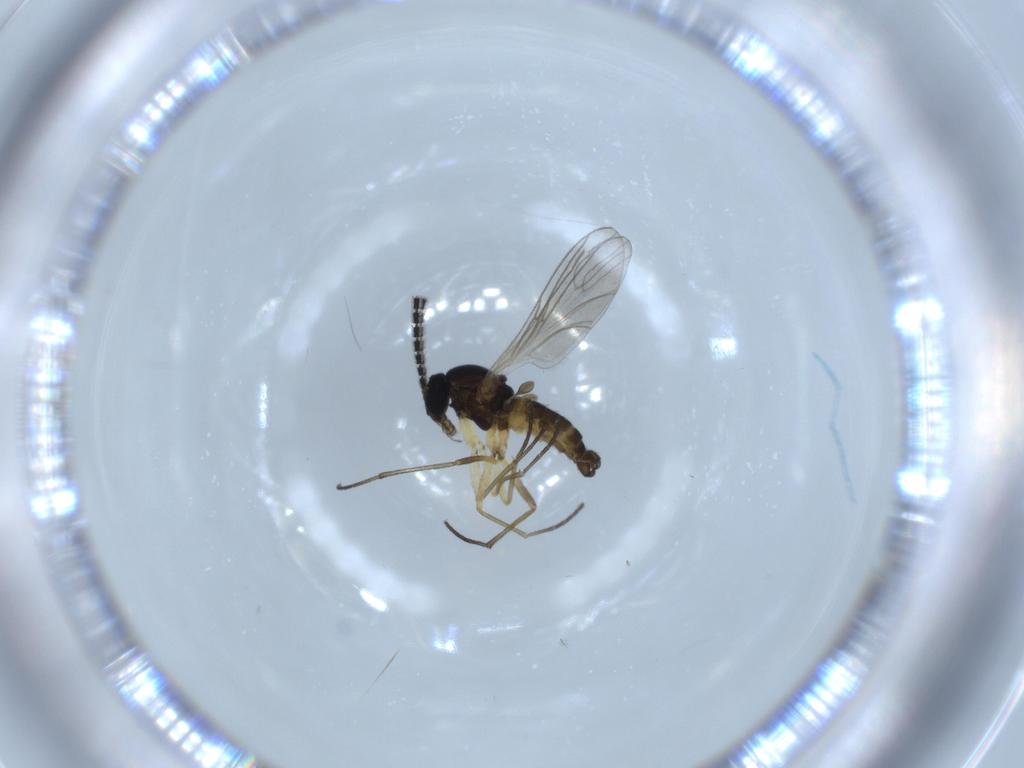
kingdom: Animalia
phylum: Arthropoda
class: Insecta
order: Diptera
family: Sciaridae
